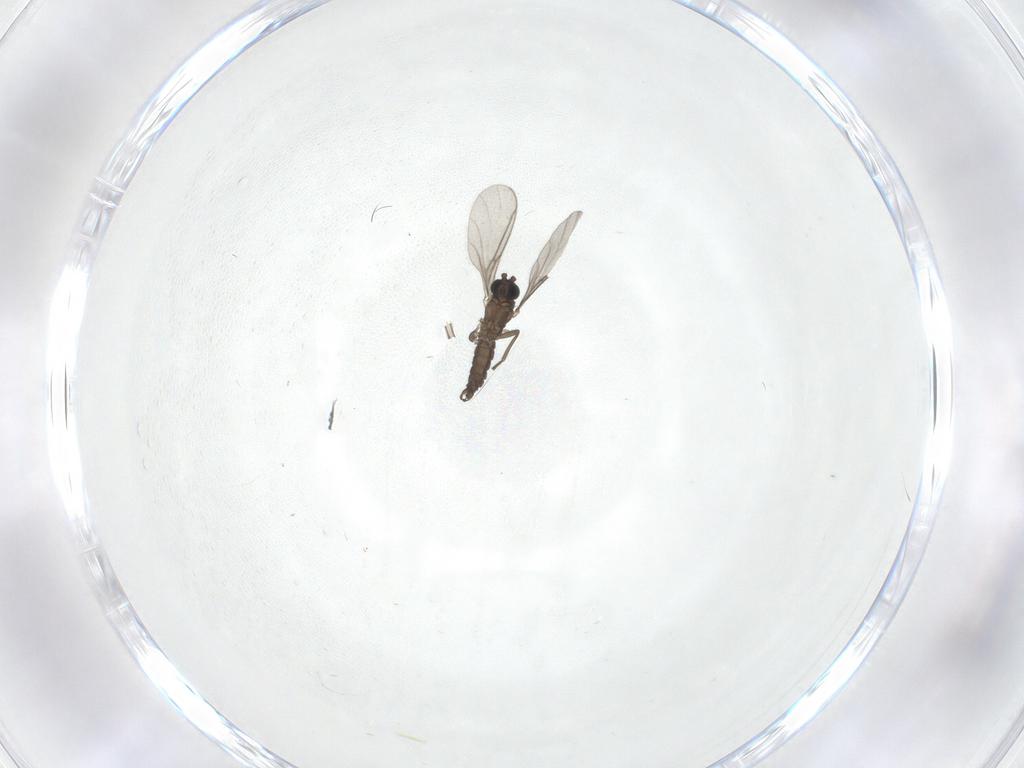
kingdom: Animalia
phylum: Arthropoda
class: Insecta
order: Diptera
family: Sciaridae
